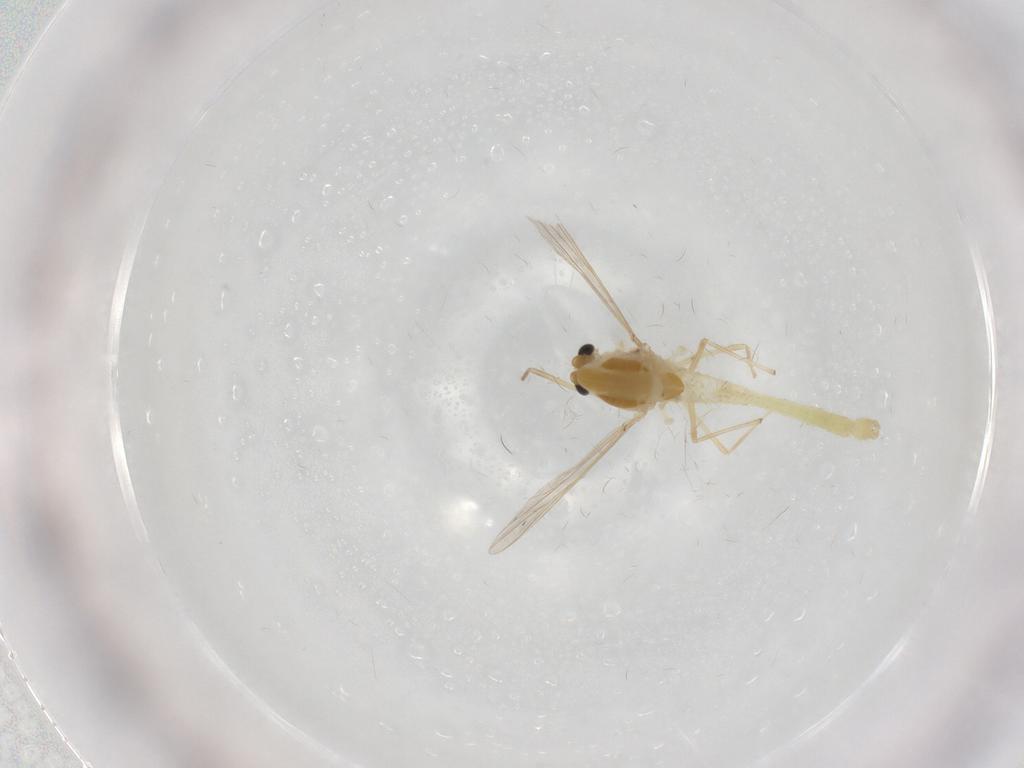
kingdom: Animalia
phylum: Arthropoda
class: Insecta
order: Diptera
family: Chironomidae
